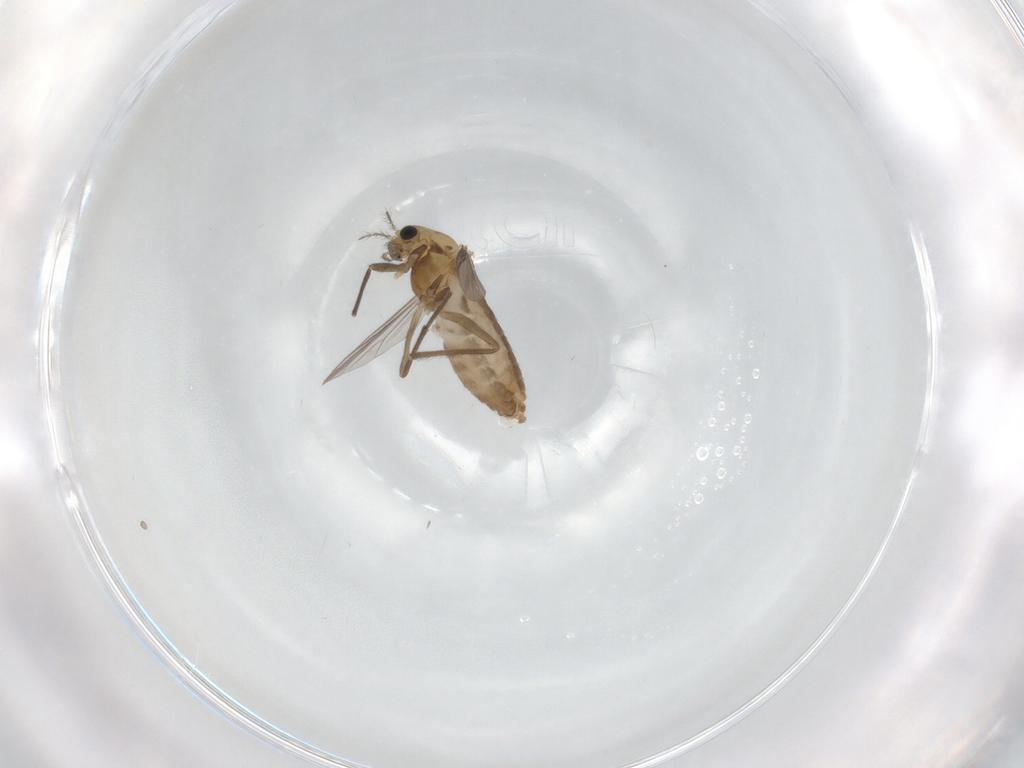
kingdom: Animalia
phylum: Arthropoda
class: Insecta
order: Diptera
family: Chironomidae
